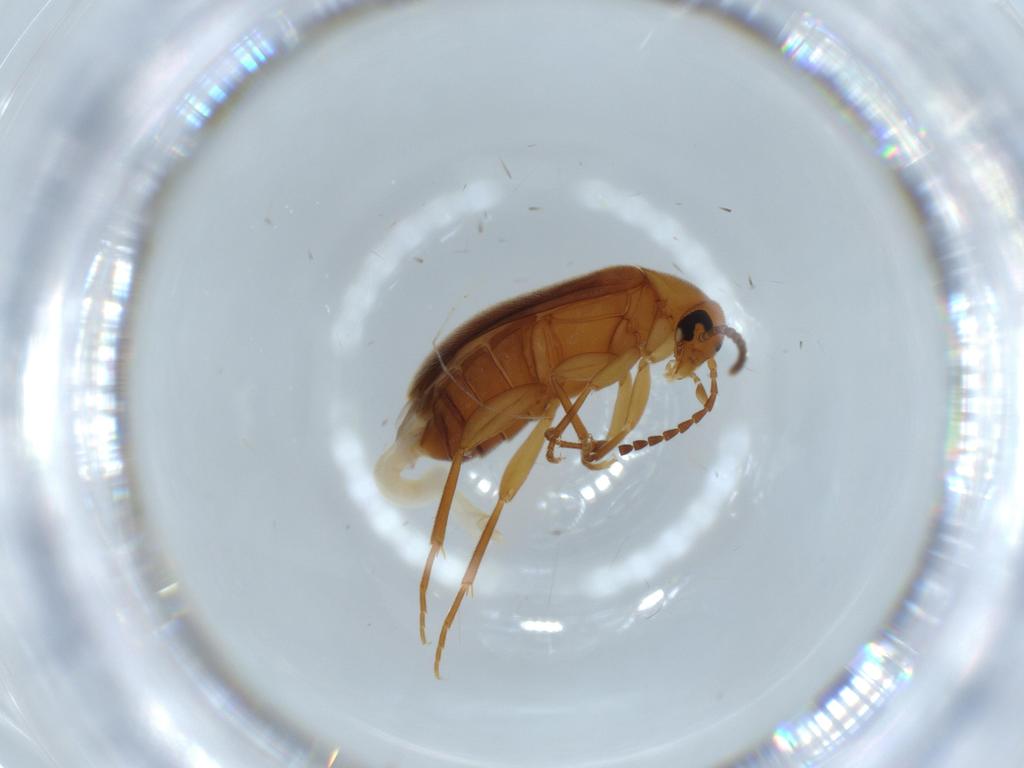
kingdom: Animalia
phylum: Arthropoda
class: Insecta
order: Coleoptera
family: Scraptiidae
